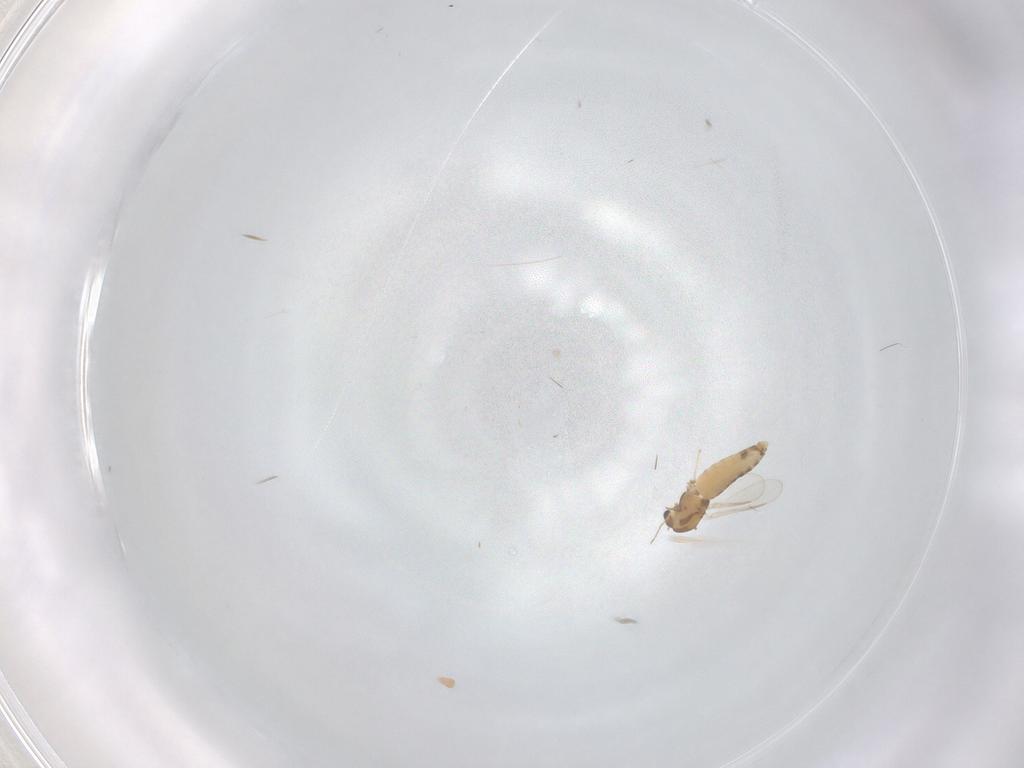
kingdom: Animalia
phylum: Arthropoda
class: Insecta
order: Diptera
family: Chironomidae
